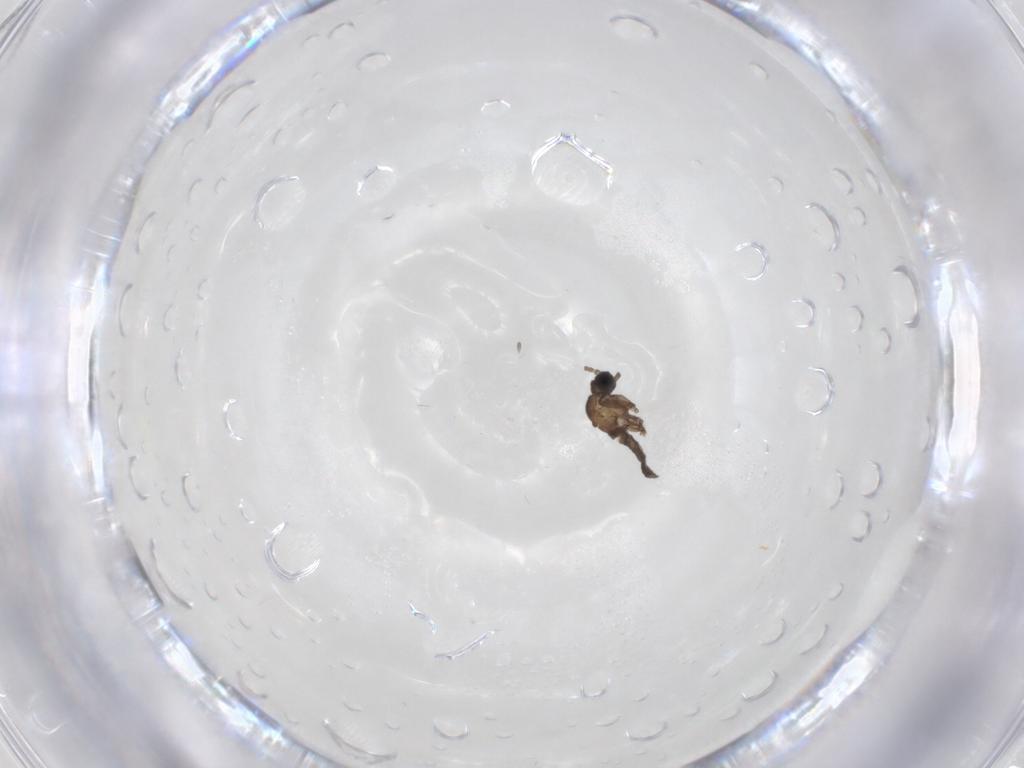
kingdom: Animalia
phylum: Arthropoda
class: Insecta
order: Diptera
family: Sciaridae
